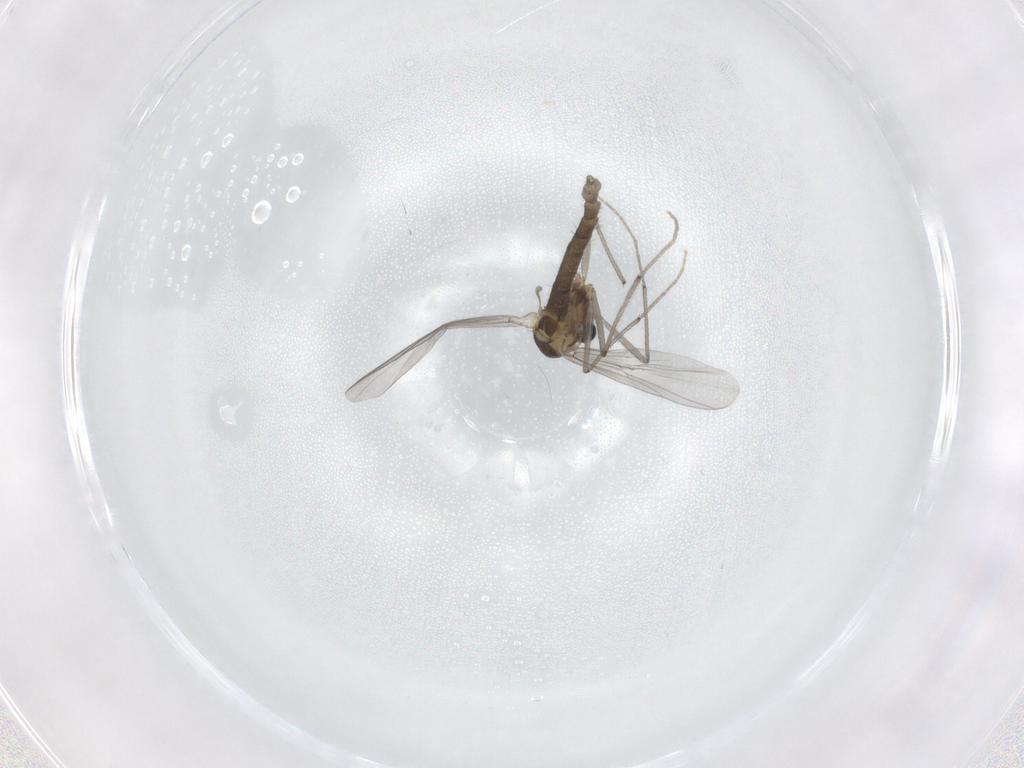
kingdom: Animalia
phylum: Arthropoda
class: Insecta
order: Diptera
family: Chironomidae
